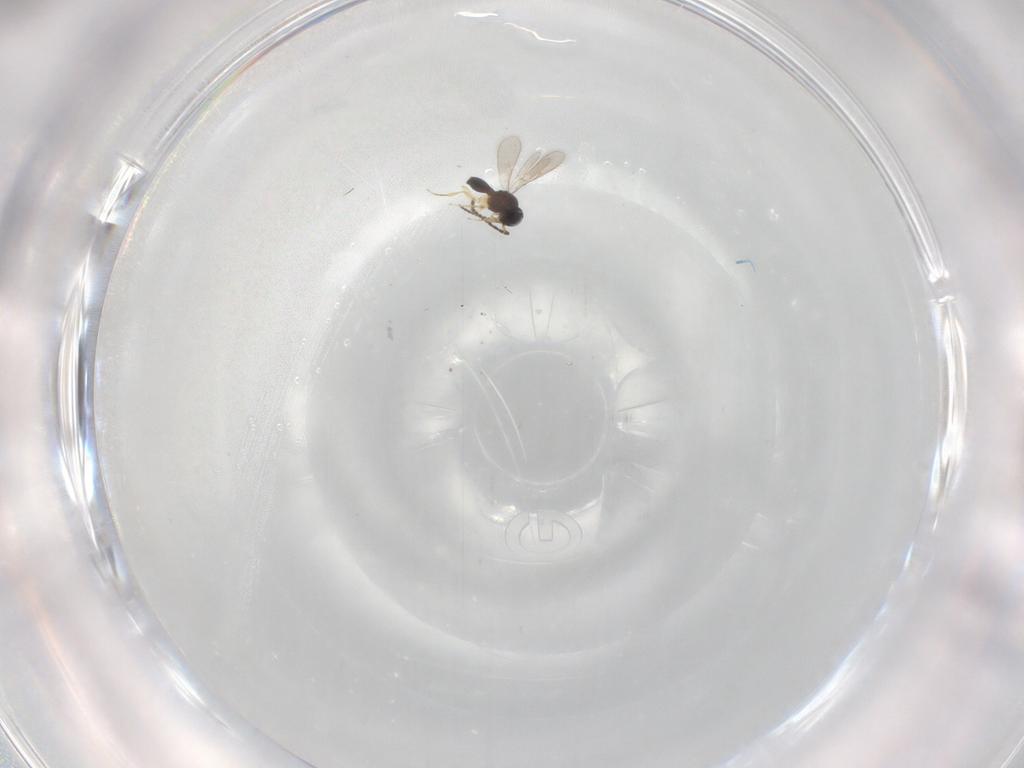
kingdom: Animalia
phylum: Arthropoda
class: Insecta
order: Hymenoptera
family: Scelionidae
